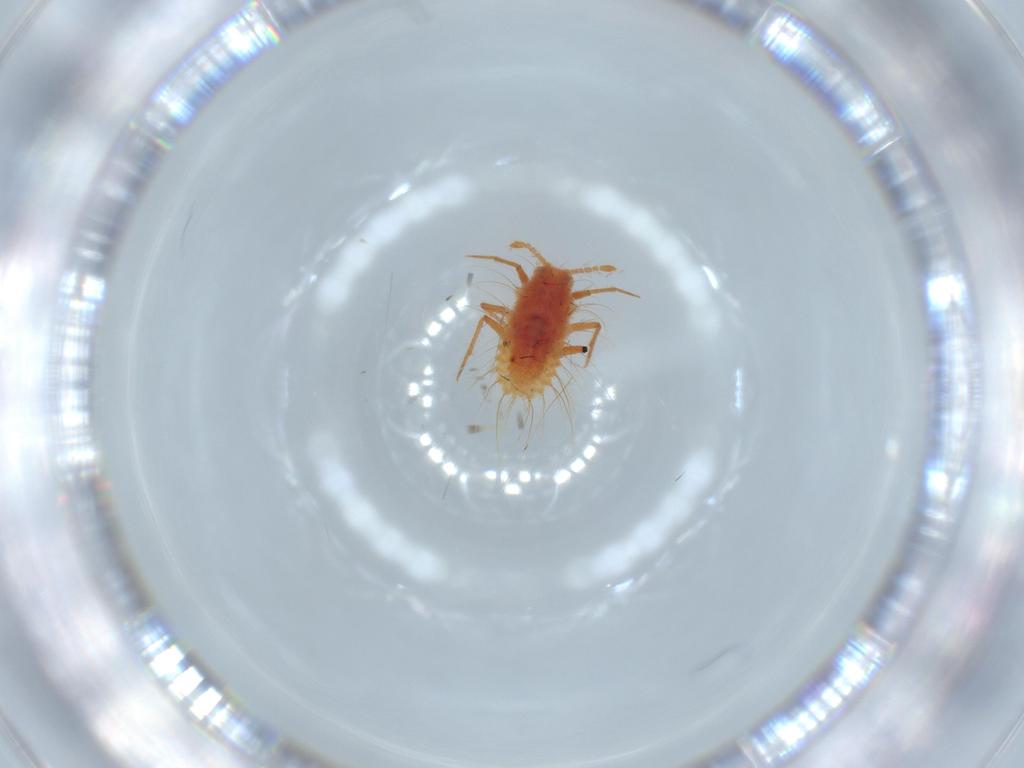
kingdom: Animalia
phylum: Arthropoda
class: Insecta
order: Hemiptera
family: Monophlebidae
